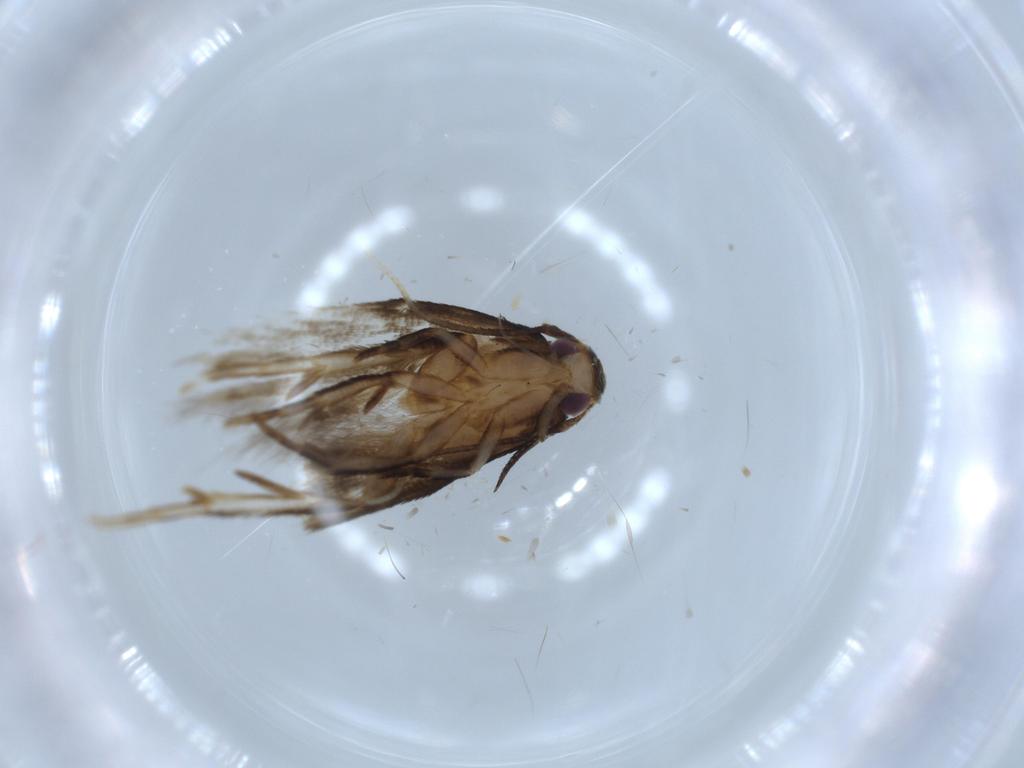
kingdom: Animalia
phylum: Arthropoda
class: Insecta
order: Lepidoptera
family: Gracillariidae
